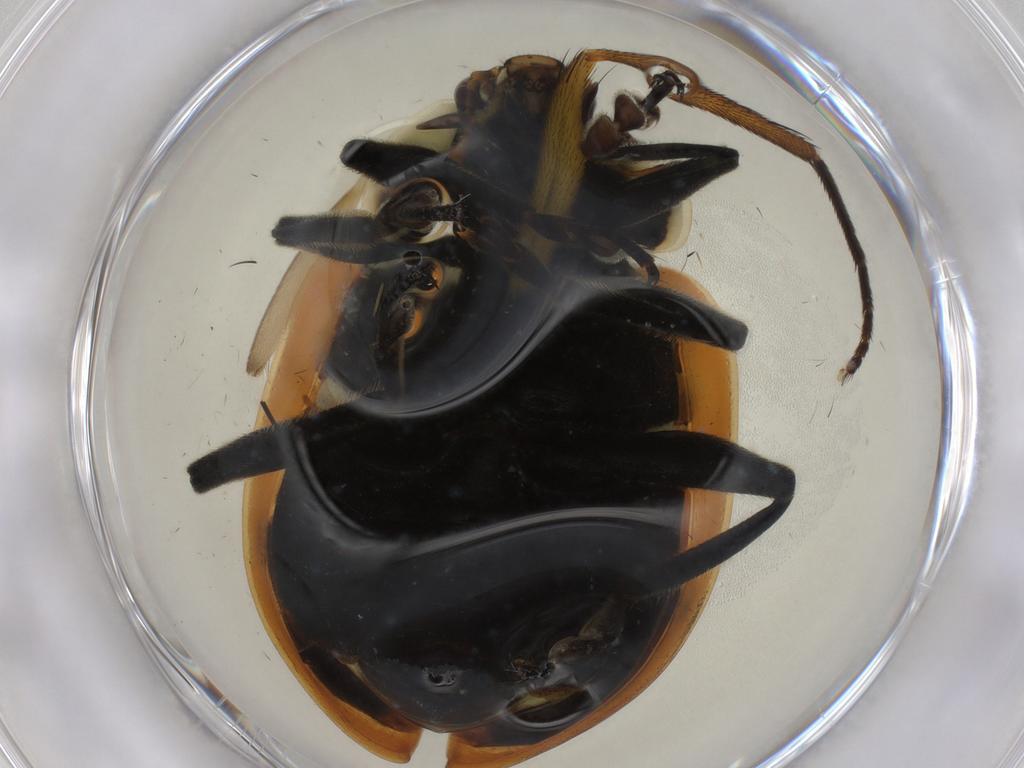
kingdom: Animalia
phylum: Arthropoda
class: Insecta
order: Coleoptera
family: Coccinellidae
